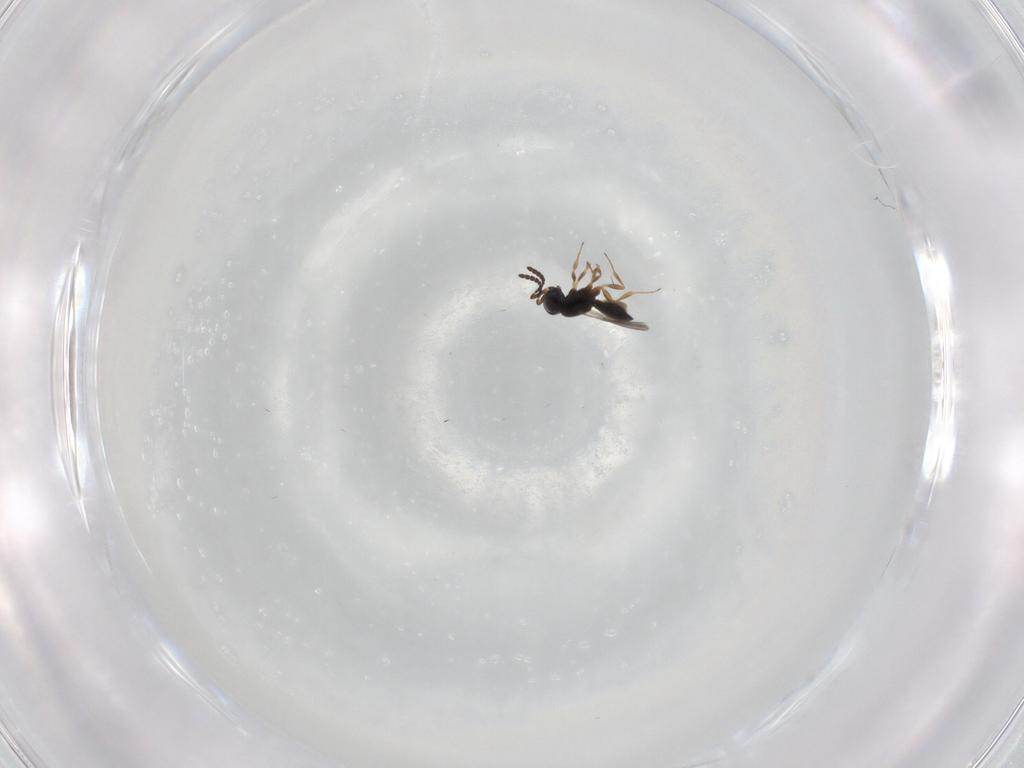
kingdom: Animalia
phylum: Arthropoda
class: Insecta
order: Hymenoptera
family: Scelionidae
